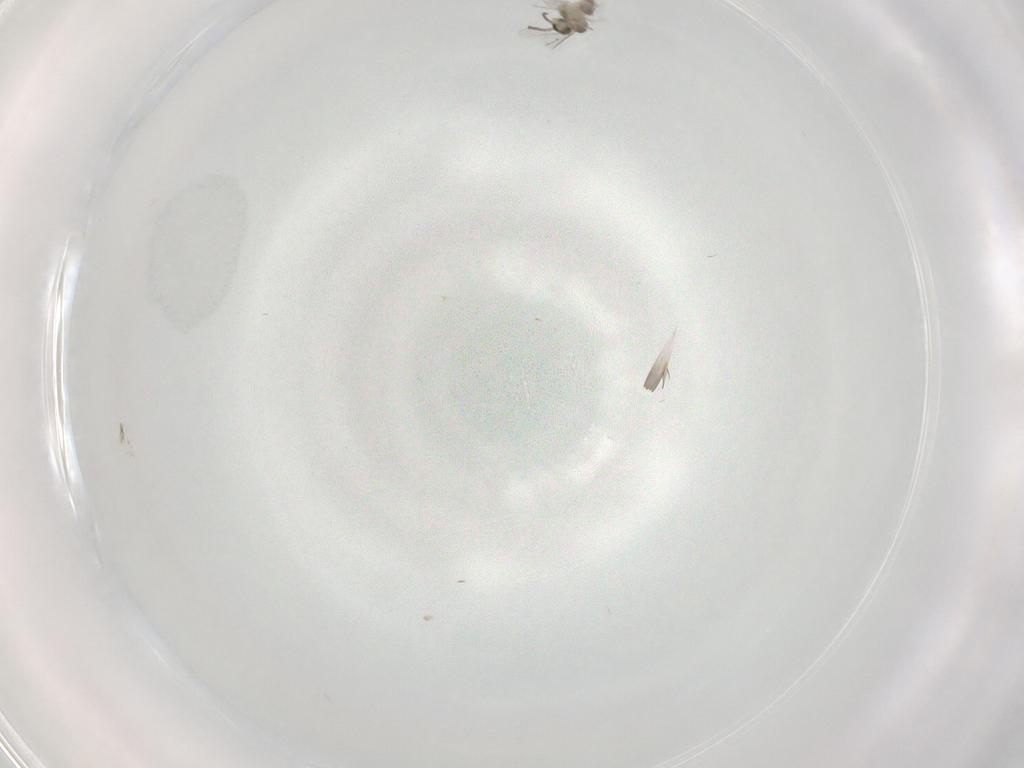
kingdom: Animalia
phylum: Arthropoda
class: Insecta
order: Diptera
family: Cecidomyiidae
